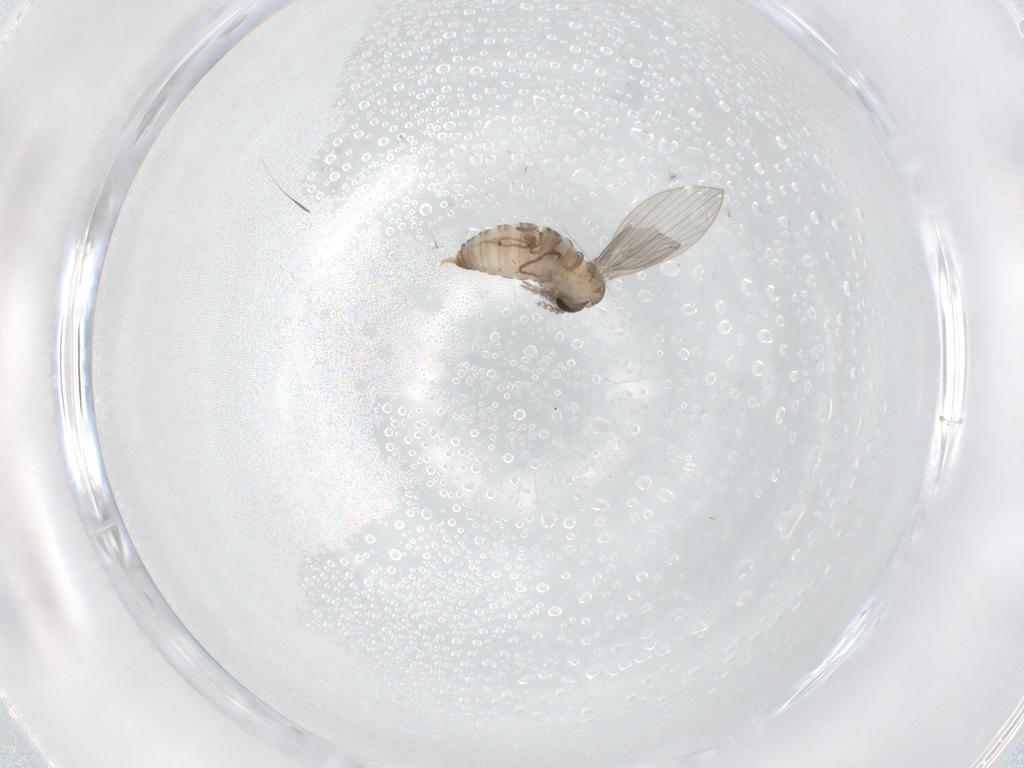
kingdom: Animalia
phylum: Arthropoda
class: Insecta
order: Diptera
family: Psychodidae
